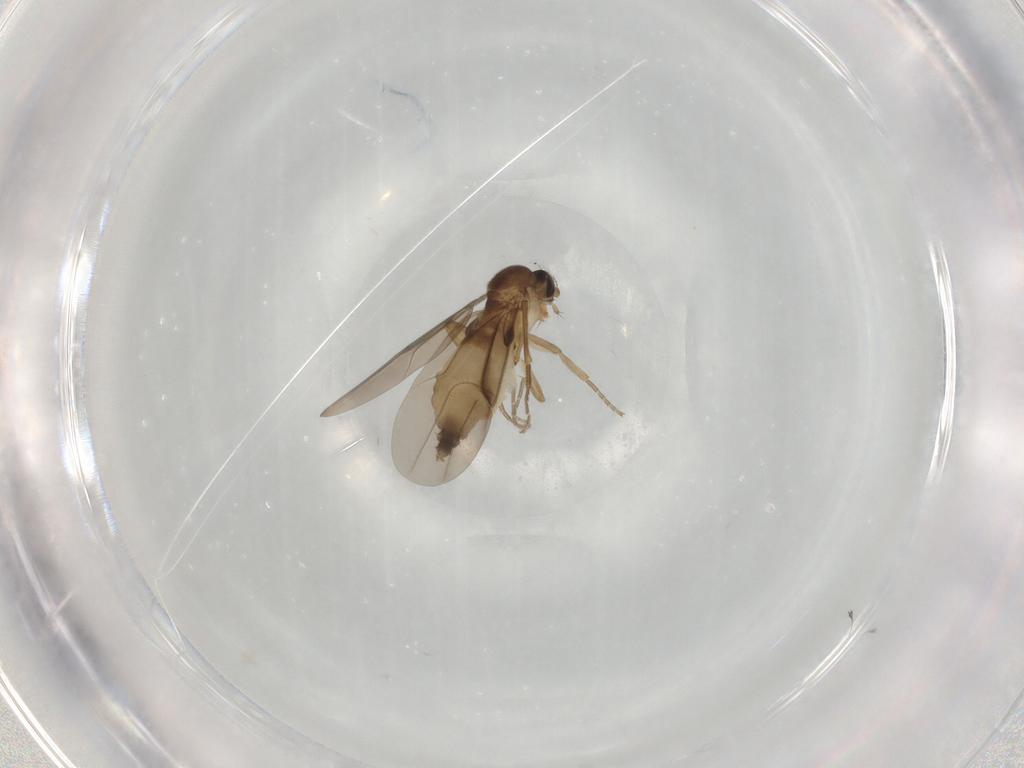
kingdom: Animalia
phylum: Arthropoda
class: Insecta
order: Diptera
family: Phoridae
